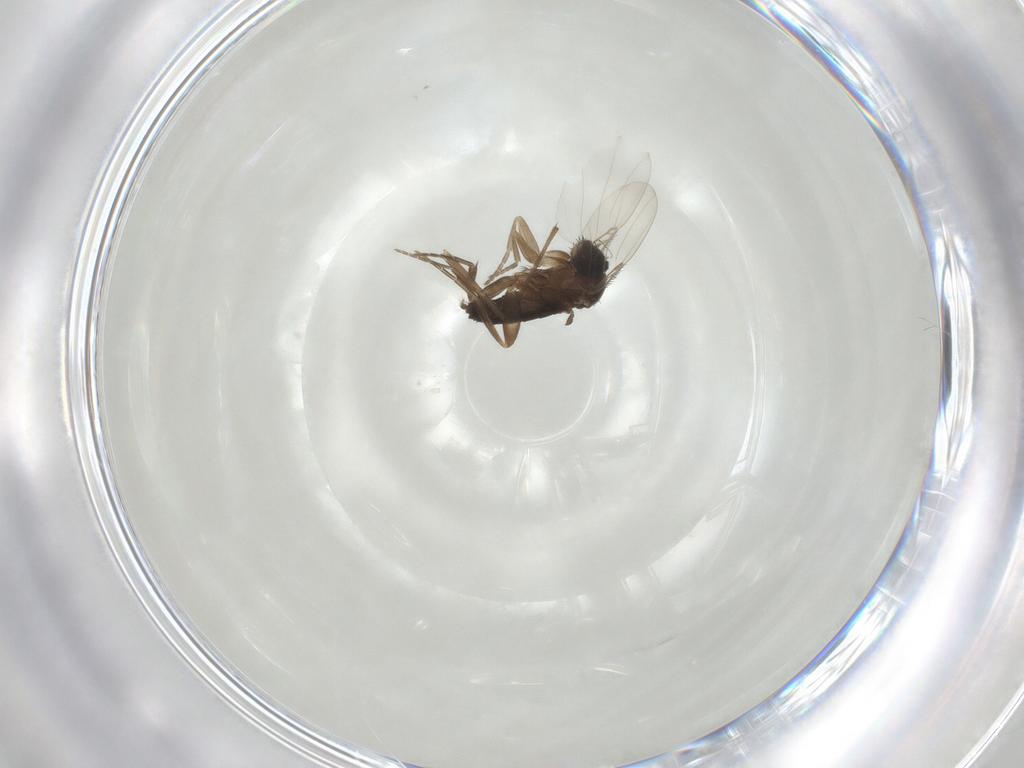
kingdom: Animalia
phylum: Arthropoda
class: Insecta
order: Diptera
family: Phoridae
